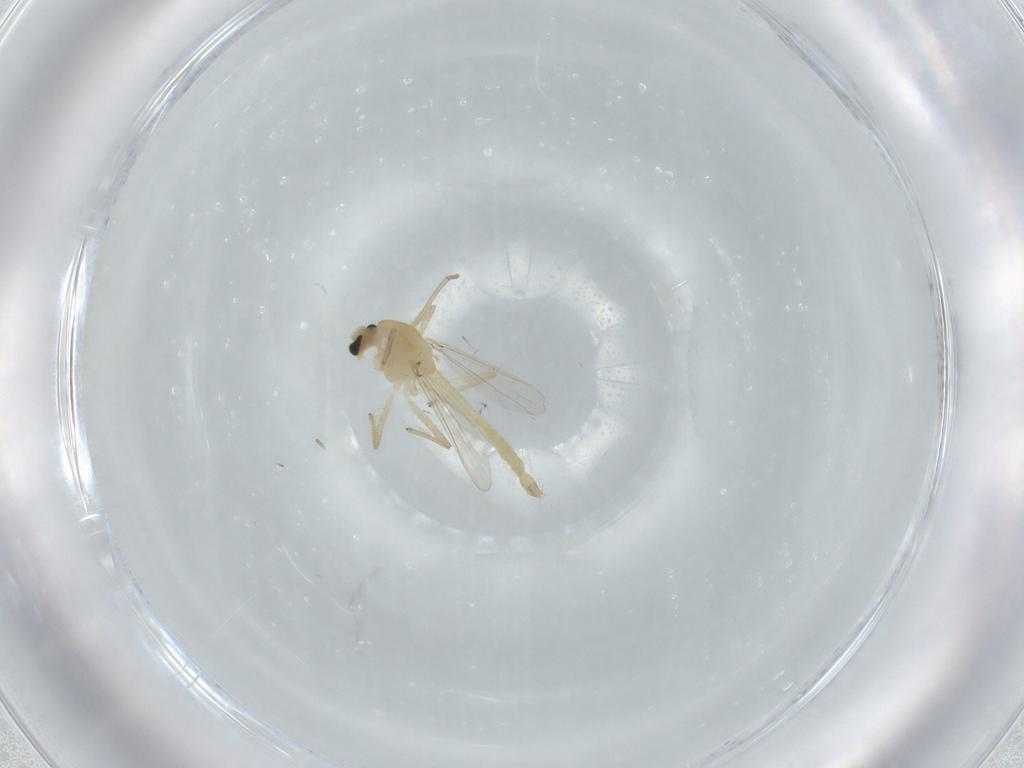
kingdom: Animalia
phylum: Arthropoda
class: Insecta
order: Diptera
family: Chironomidae
